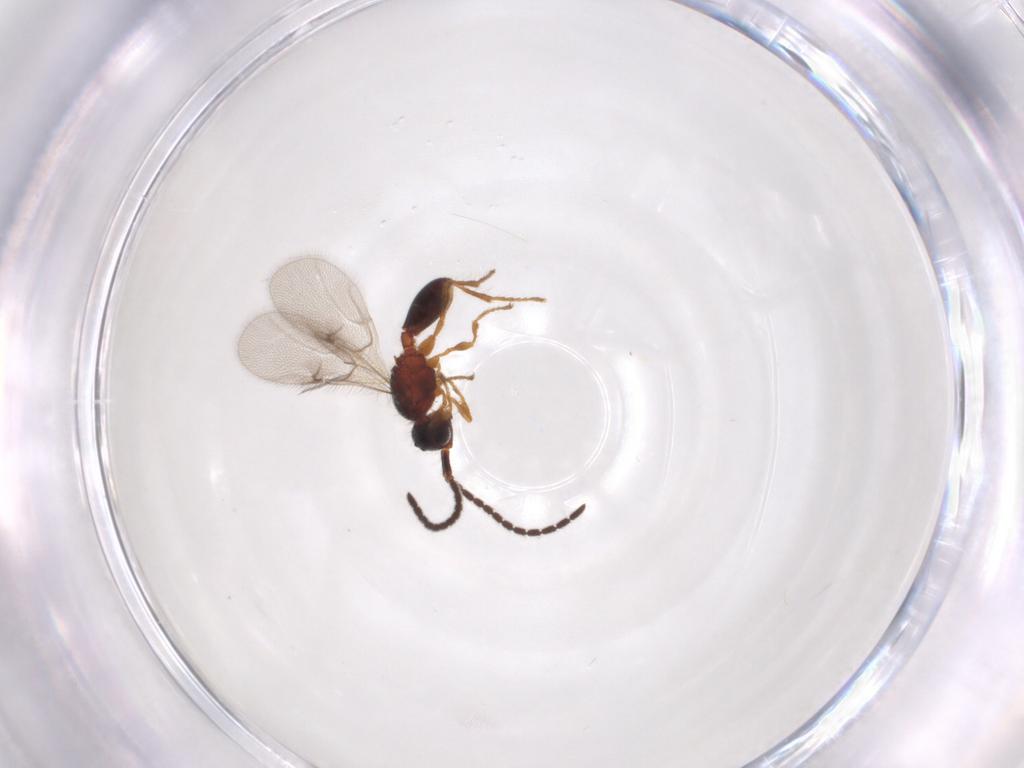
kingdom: Animalia
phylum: Arthropoda
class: Insecta
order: Hymenoptera
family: Diapriidae
